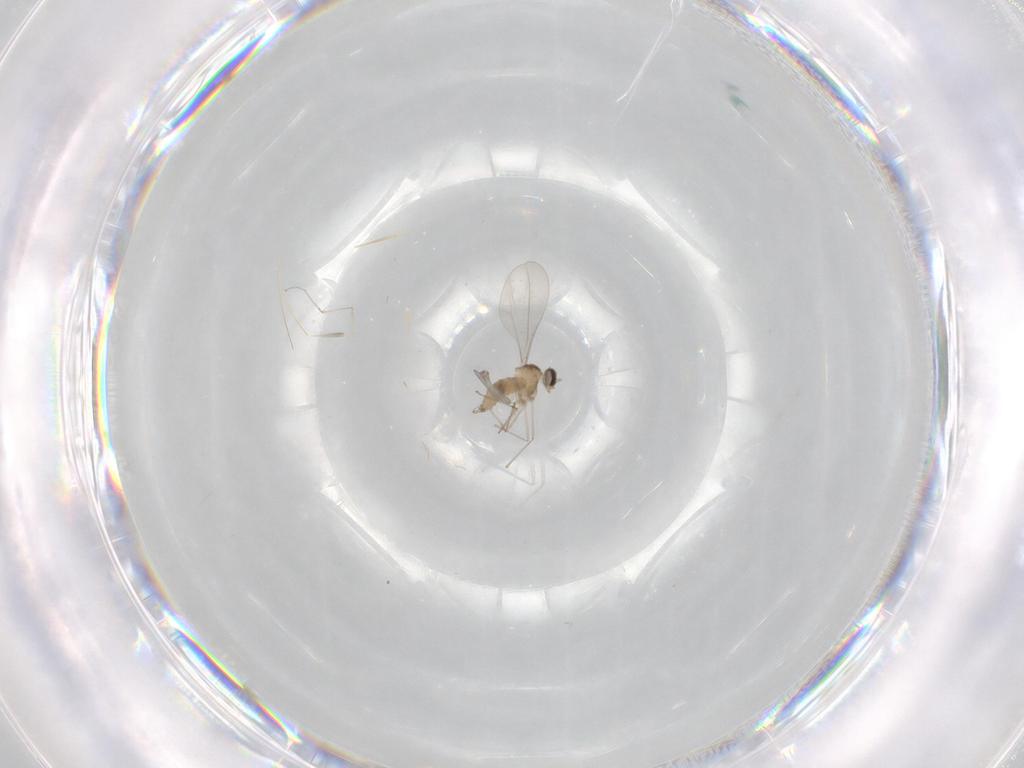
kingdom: Animalia
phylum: Arthropoda
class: Insecta
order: Diptera
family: Cecidomyiidae
